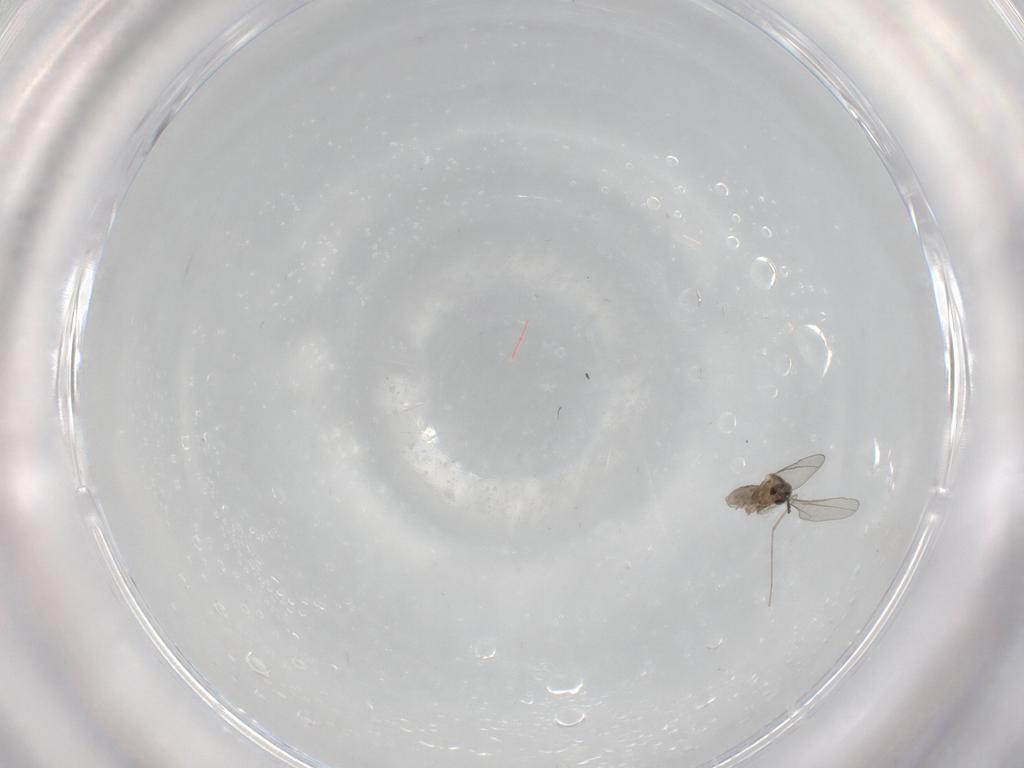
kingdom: Animalia
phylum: Arthropoda
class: Insecta
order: Diptera
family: Cecidomyiidae
